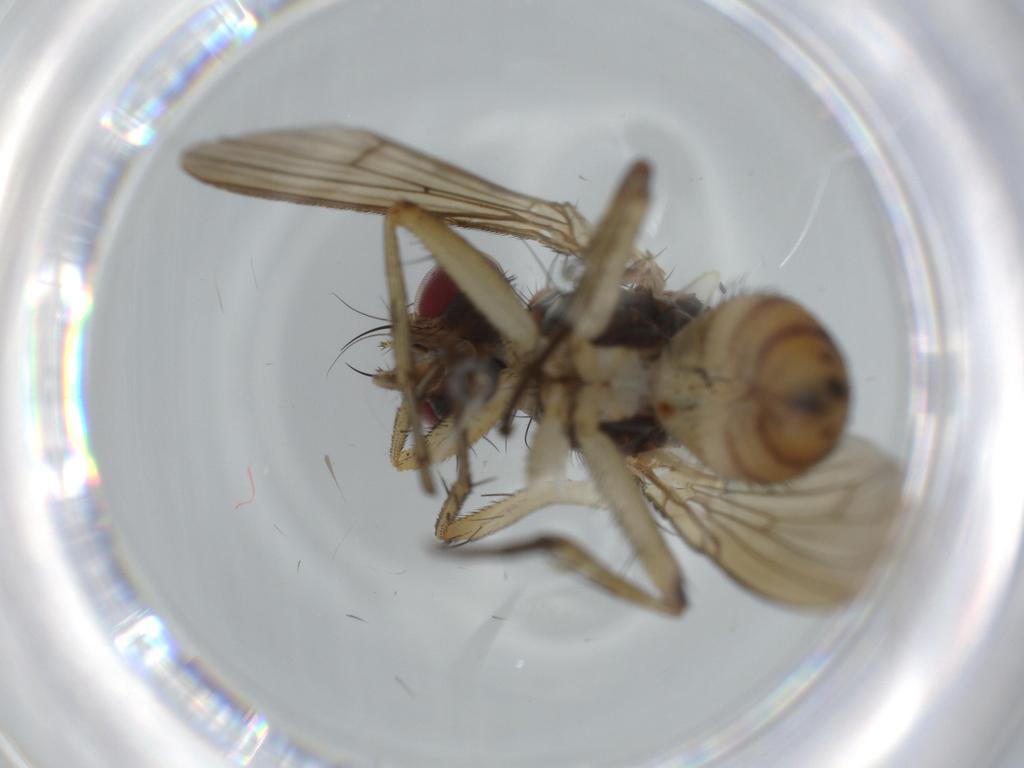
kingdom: Animalia
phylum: Arthropoda
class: Insecta
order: Diptera
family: Muscidae
